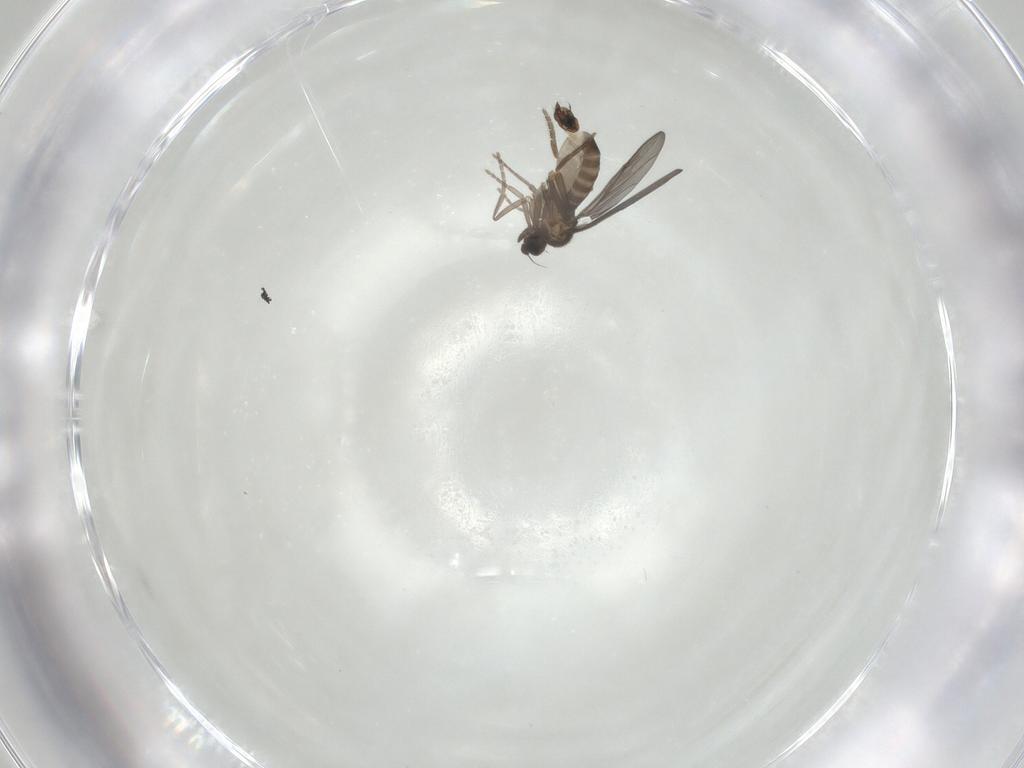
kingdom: Animalia
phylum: Arthropoda
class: Insecta
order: Diptera
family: Phoridae
